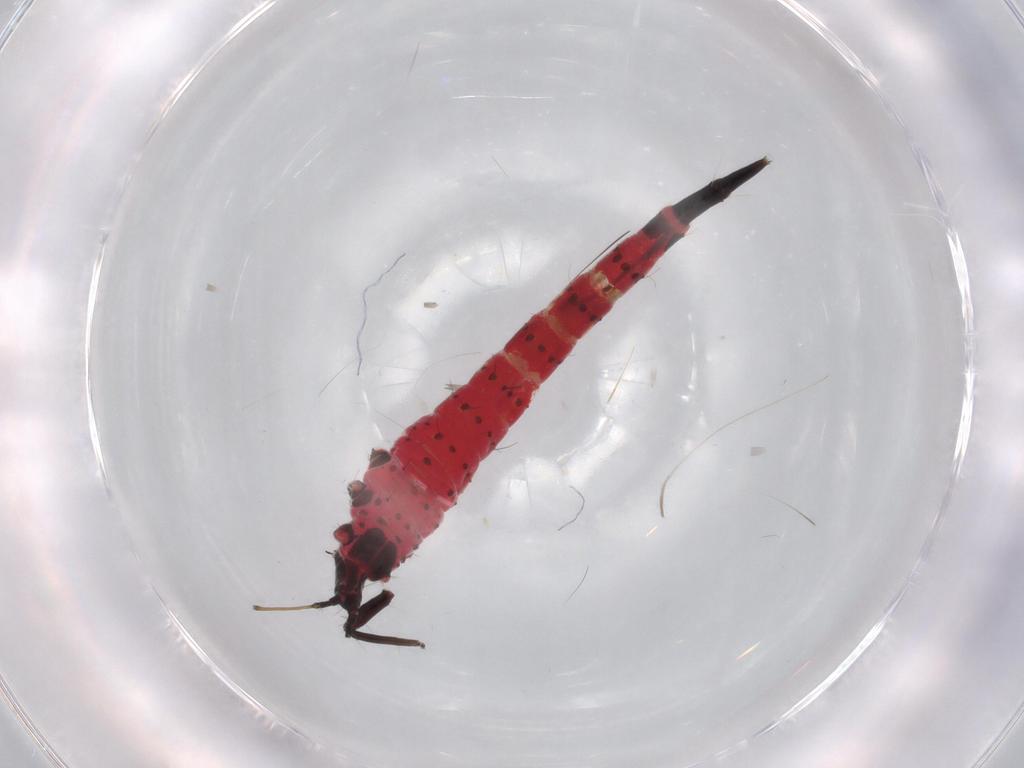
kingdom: Animalia
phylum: Arthropoda
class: Insecta
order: Thysanoptera
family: Phlaeothripidae
